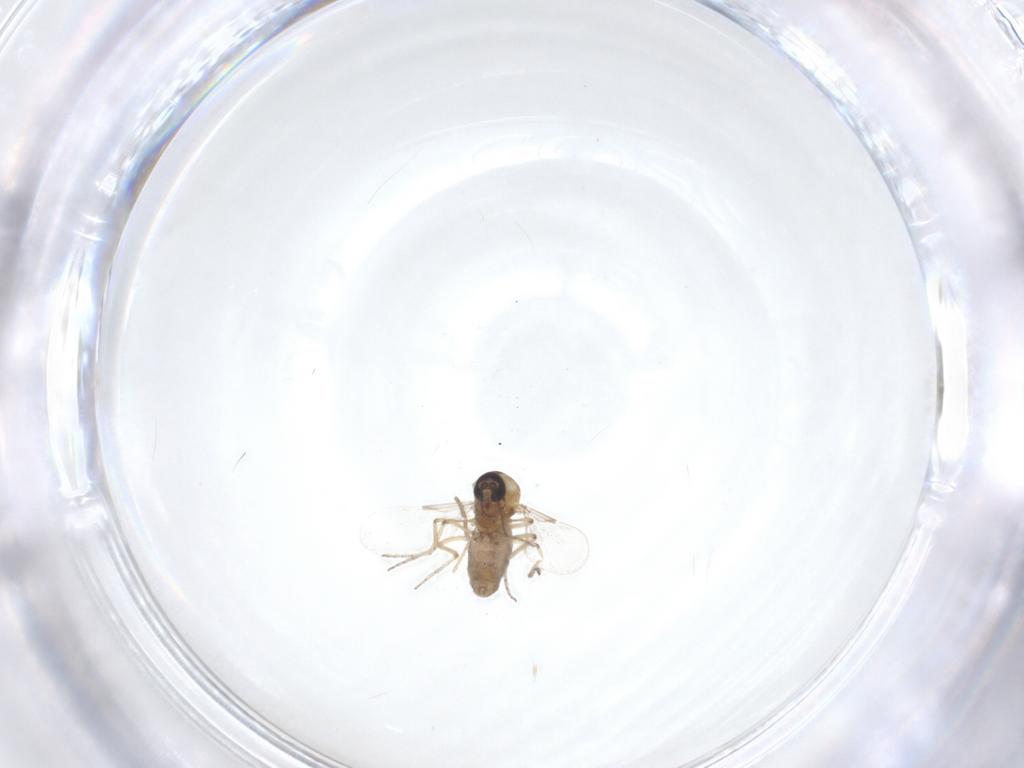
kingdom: Animalia
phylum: Arthropoda
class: Insecta
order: Diptera
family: Ceratopogonidae
